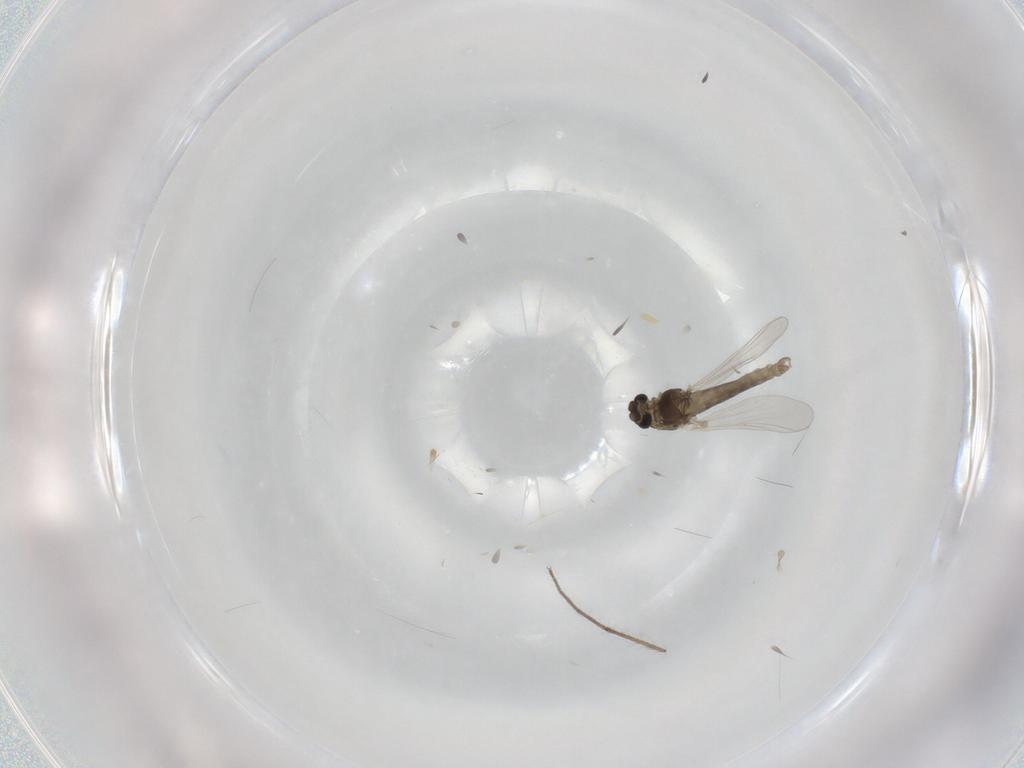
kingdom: Animalia
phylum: Arthropoda
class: Insecta
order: Diptera
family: Chironomidae
